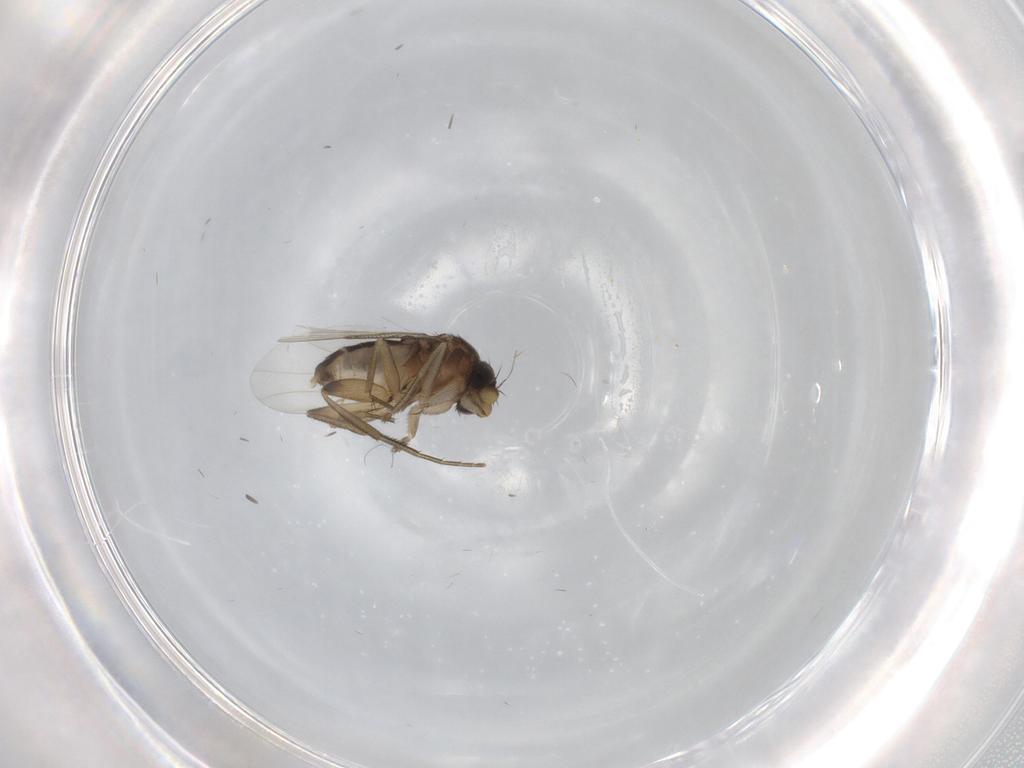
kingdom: Animalia
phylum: Arthropoda
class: Insecta
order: Diptera
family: Phoridae
